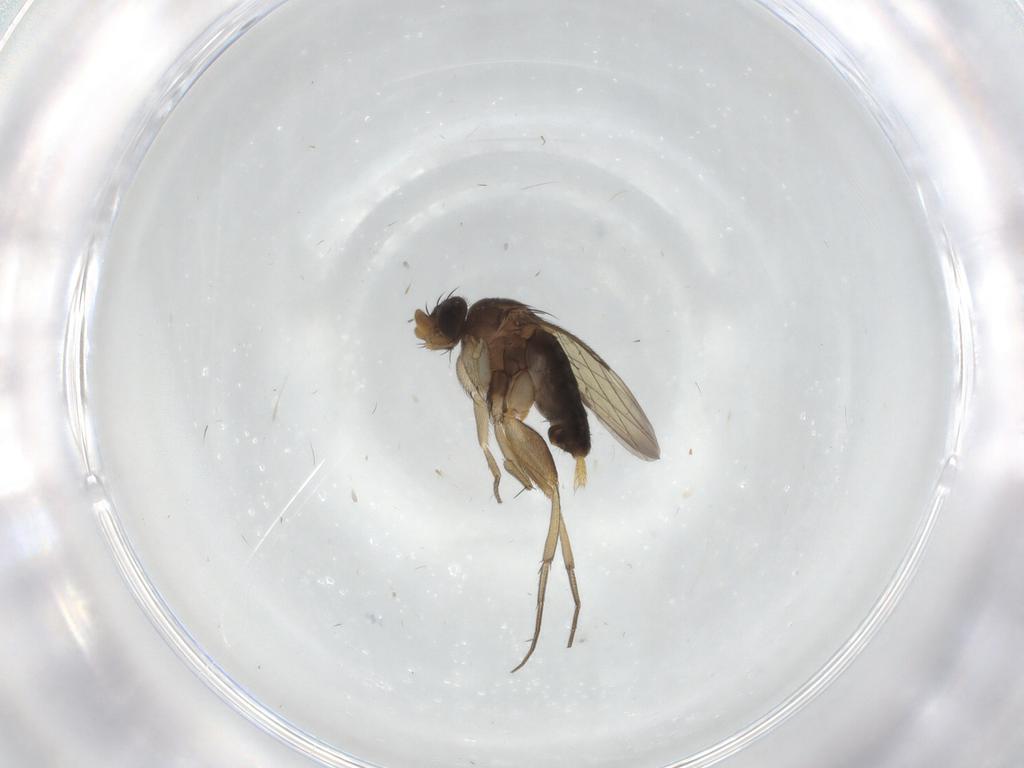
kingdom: Animalia
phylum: Arthropoda
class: Insecta
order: Diptera
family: Phoridae
